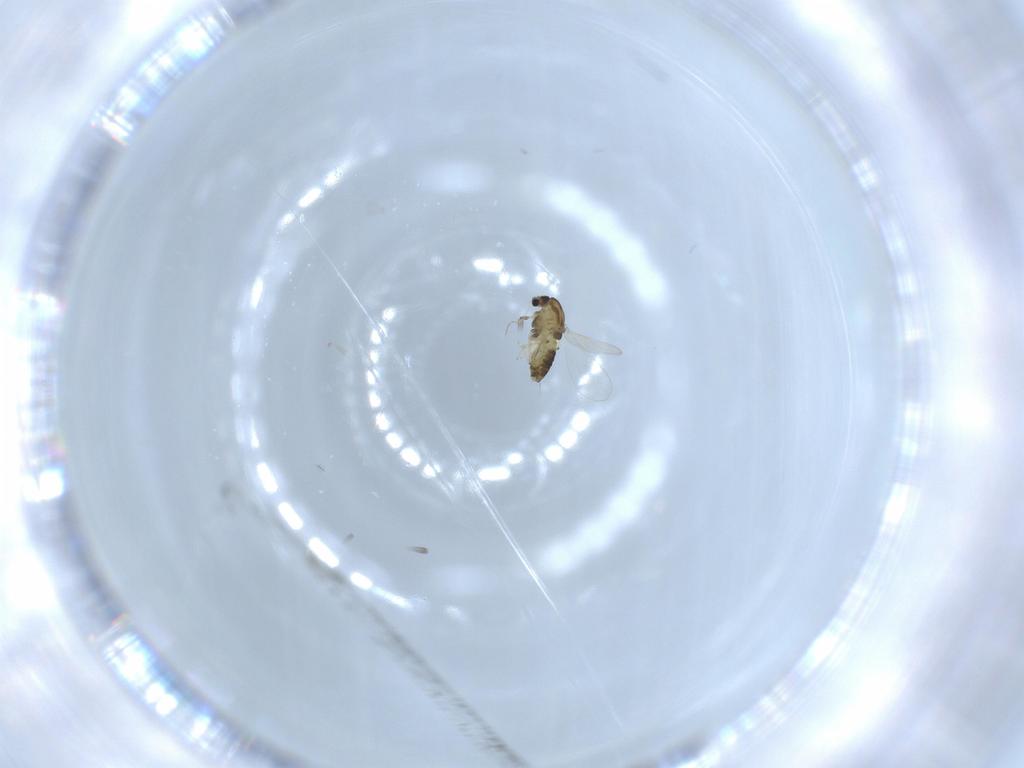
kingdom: Animalia
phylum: Arthropoda
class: Insecta
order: Diptera
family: Chironomidae
